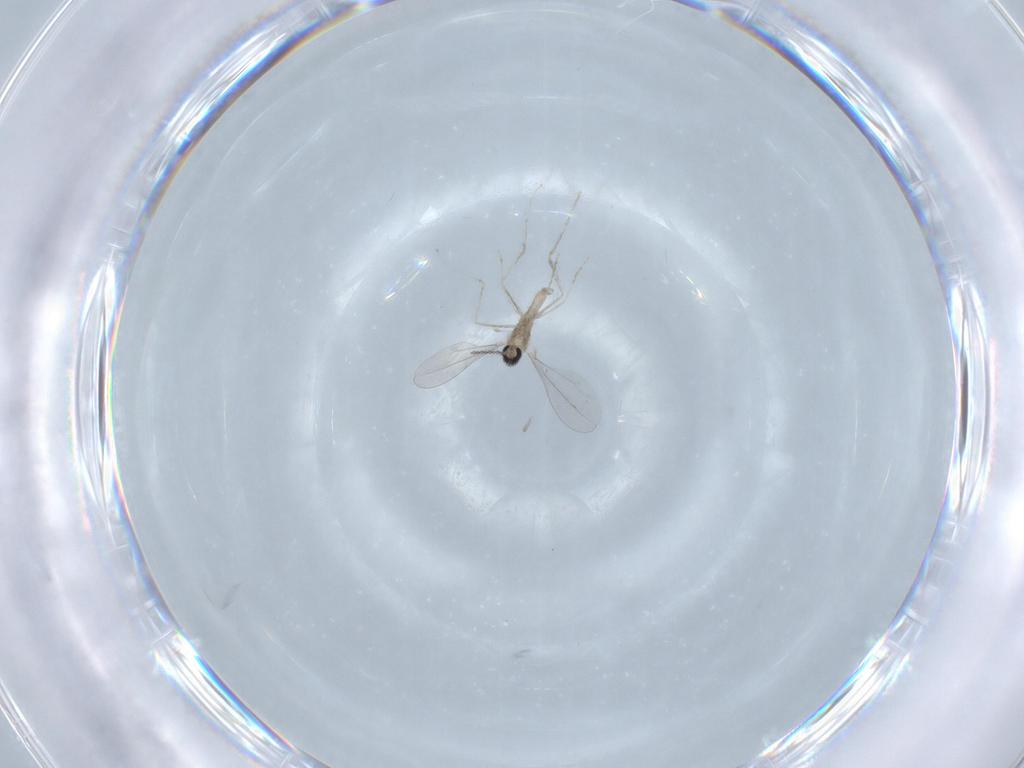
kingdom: Animalia
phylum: Arthropoda
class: Insecta
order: Diptera
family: Cecidomyiidae
